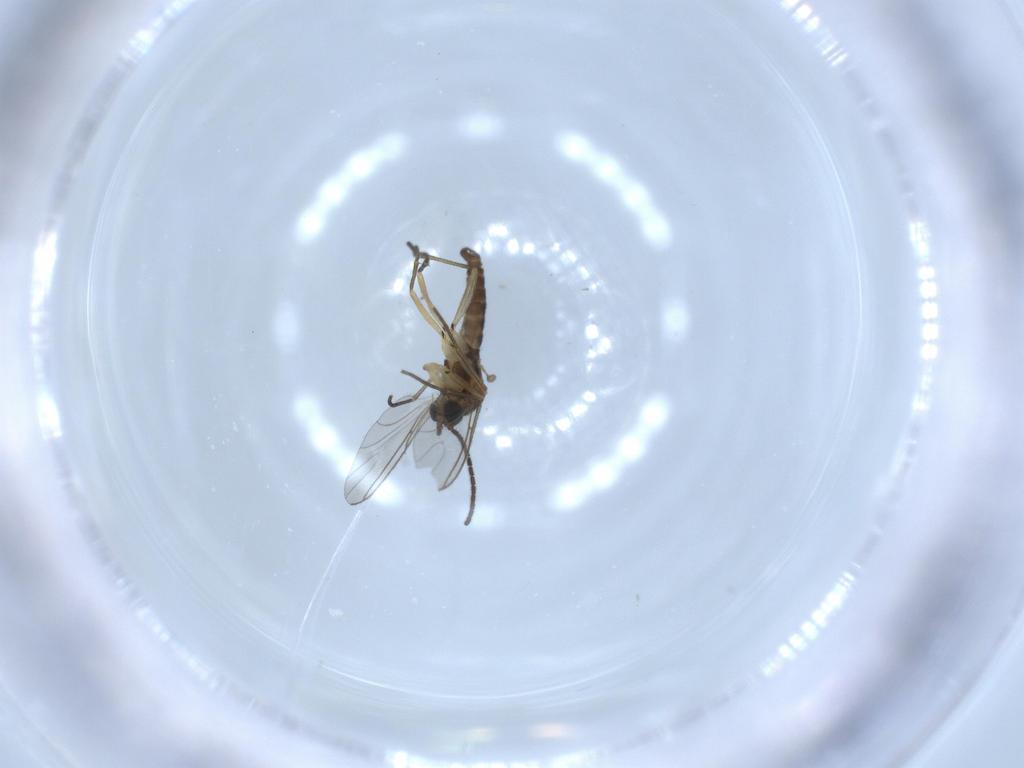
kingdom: Animalia
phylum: Arthropoda
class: Insecta
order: Diptera
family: Sciaridae
